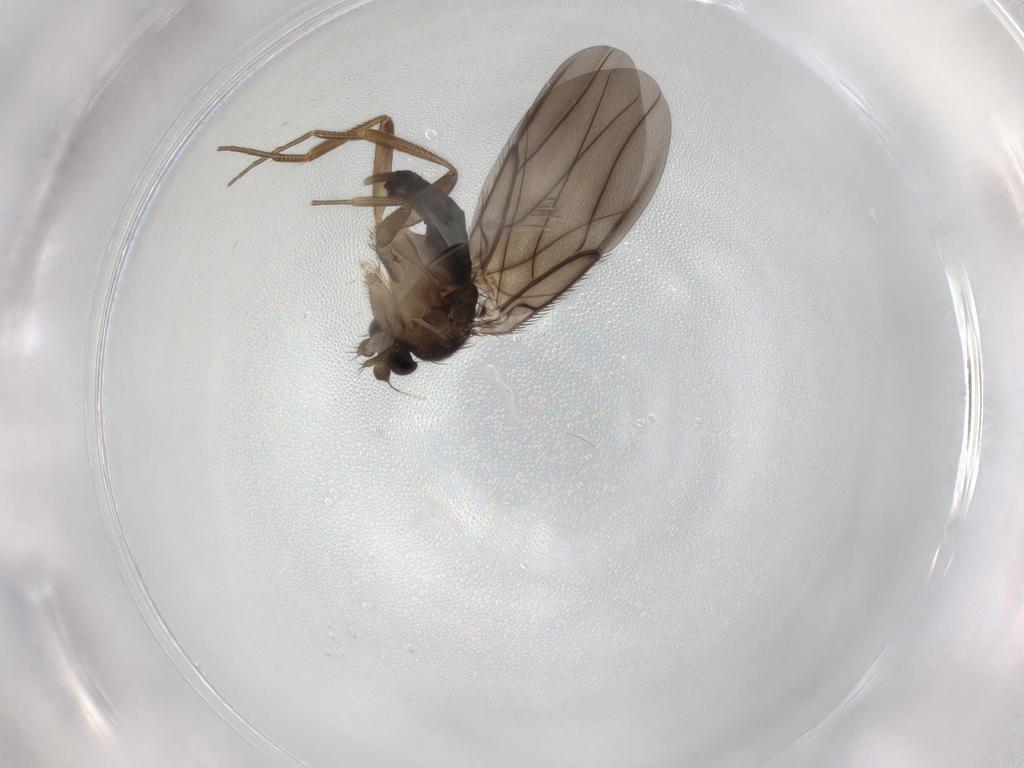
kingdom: Animalia
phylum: Arthropoda
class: Insecta
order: Diptera
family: Phoridae
